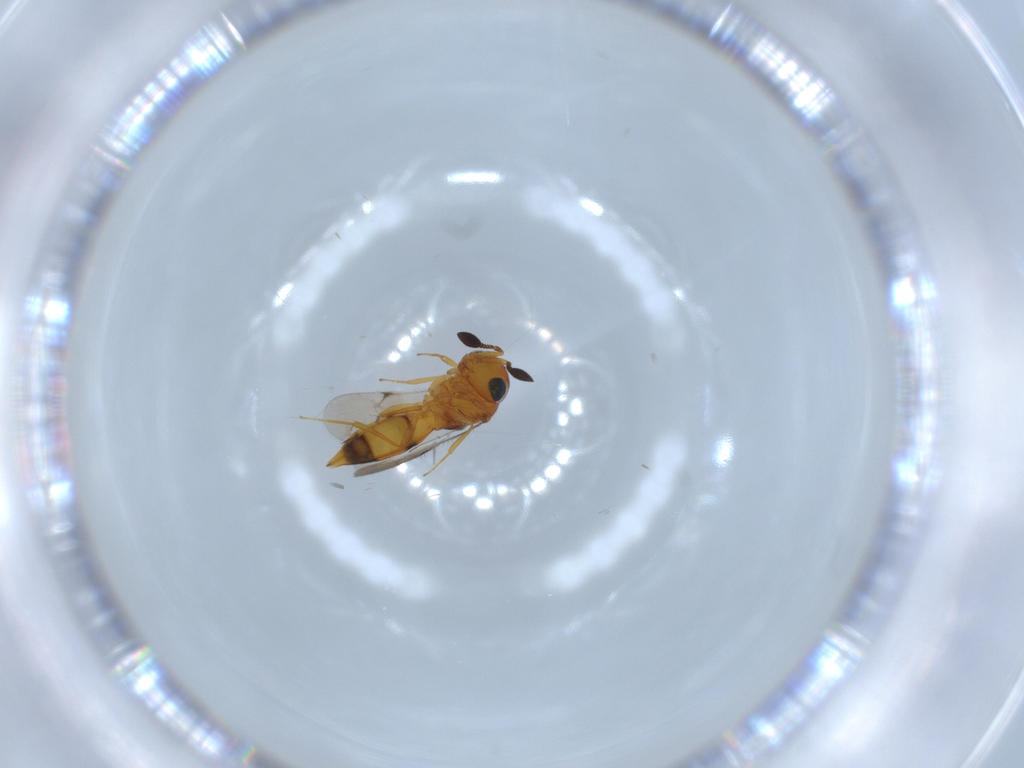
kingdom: Animalia
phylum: Arthropoda
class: Insecta
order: Hymenoptera
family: Scelionidae
